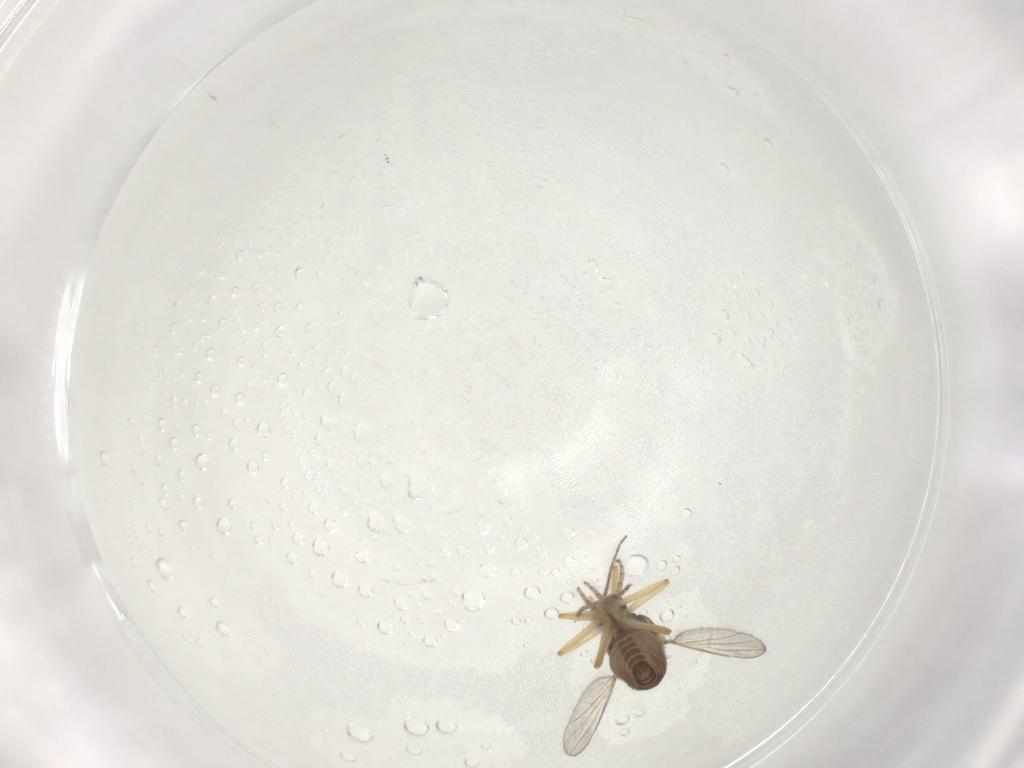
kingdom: Animalia
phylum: Arthropoda
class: Insecta
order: Diptera
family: Ceratopogonidae
